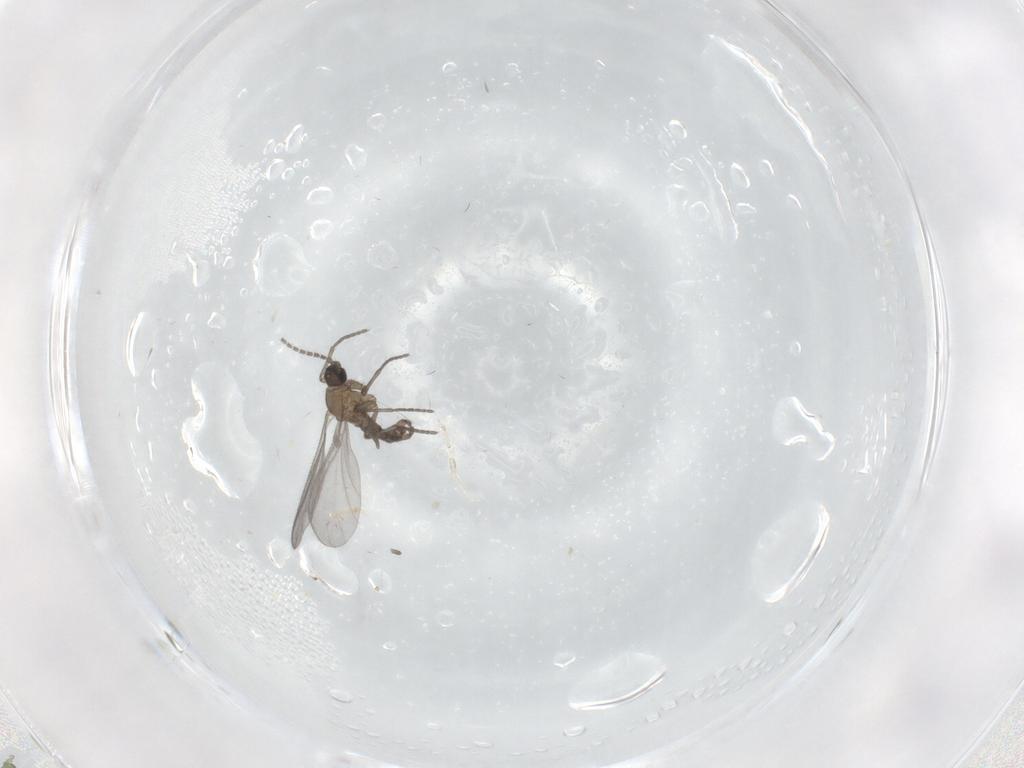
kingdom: Animalia
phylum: Arthropoda
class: Insecta
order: Diptera
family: Sciaridae
